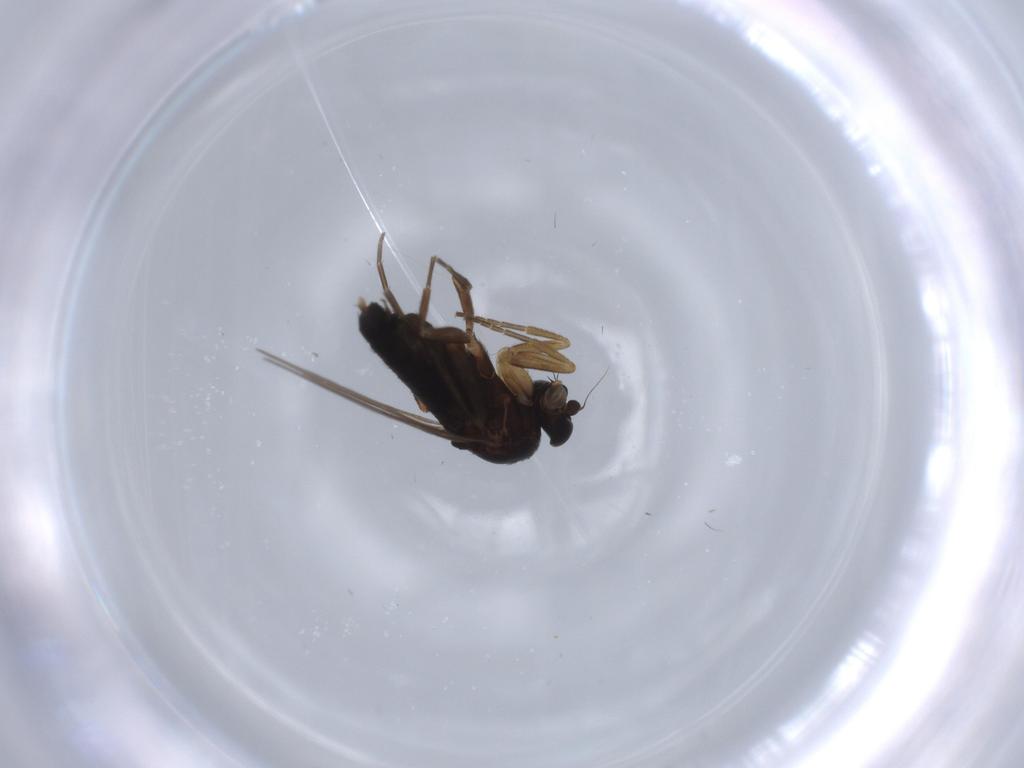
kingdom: Animalia
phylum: Arthropoda
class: Insecta
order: Diptera
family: Phoridae
